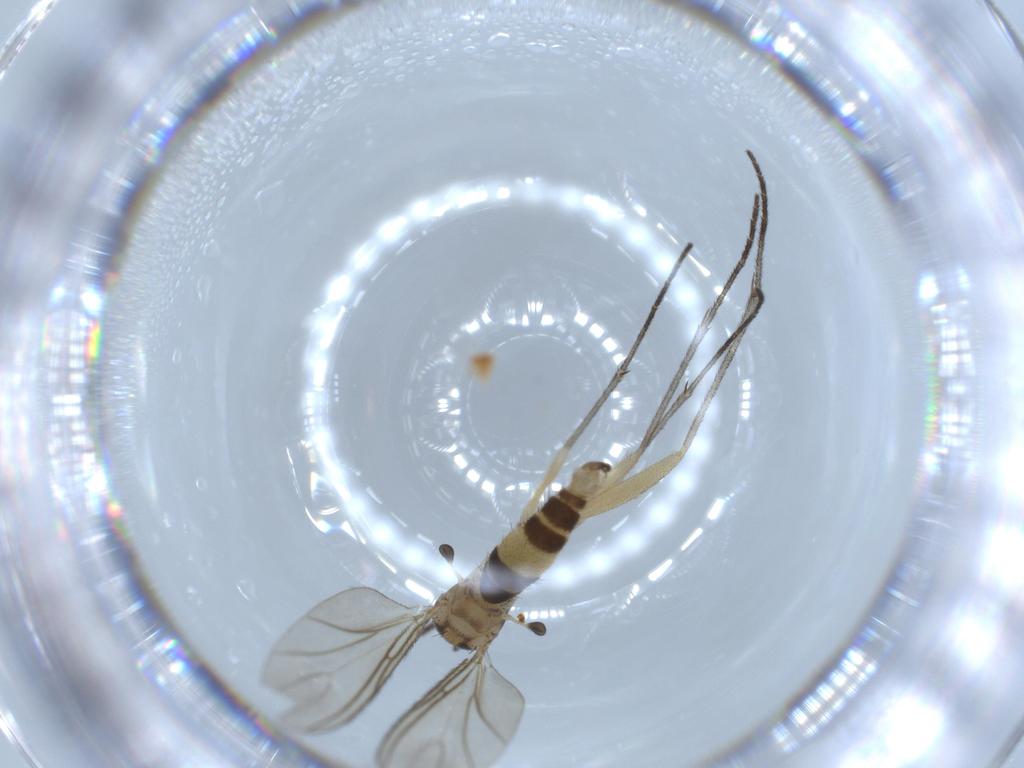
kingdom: Animalia
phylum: Arthropoda
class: Insecta
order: Diptera
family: Sciaridae
